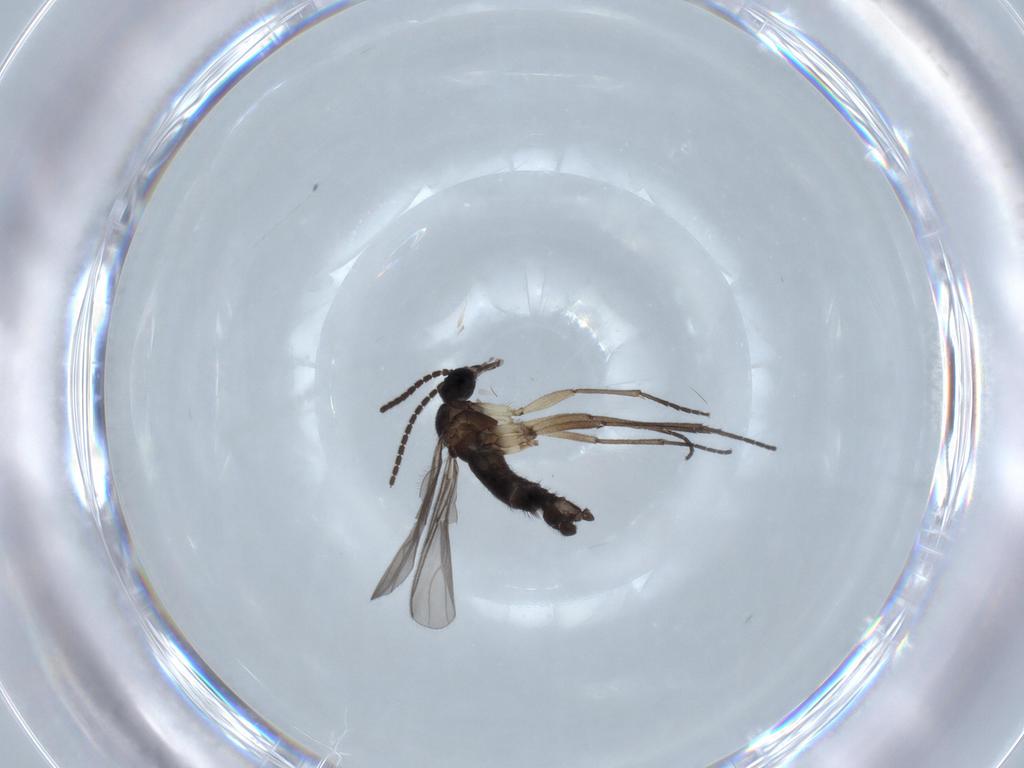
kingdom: Animalia
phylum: Arthropoda
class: Insecta
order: Diptera
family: Sciaridae
